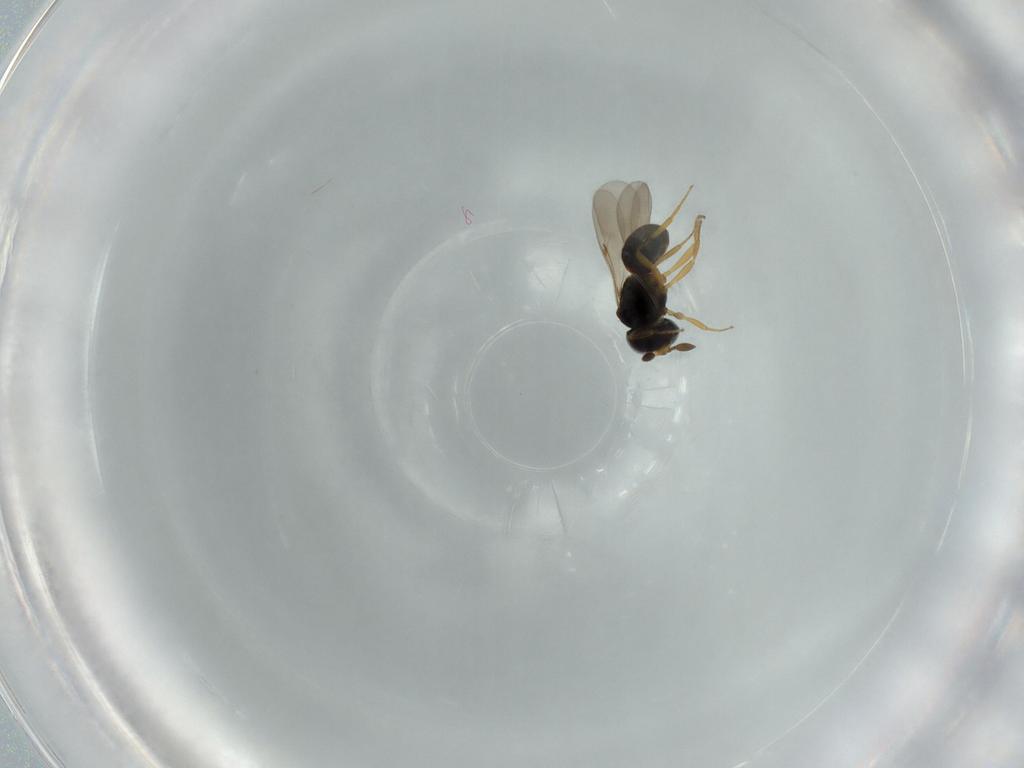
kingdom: Animalia
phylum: Arthropoda
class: Insecta
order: Hymenoptera
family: Scelionidae
